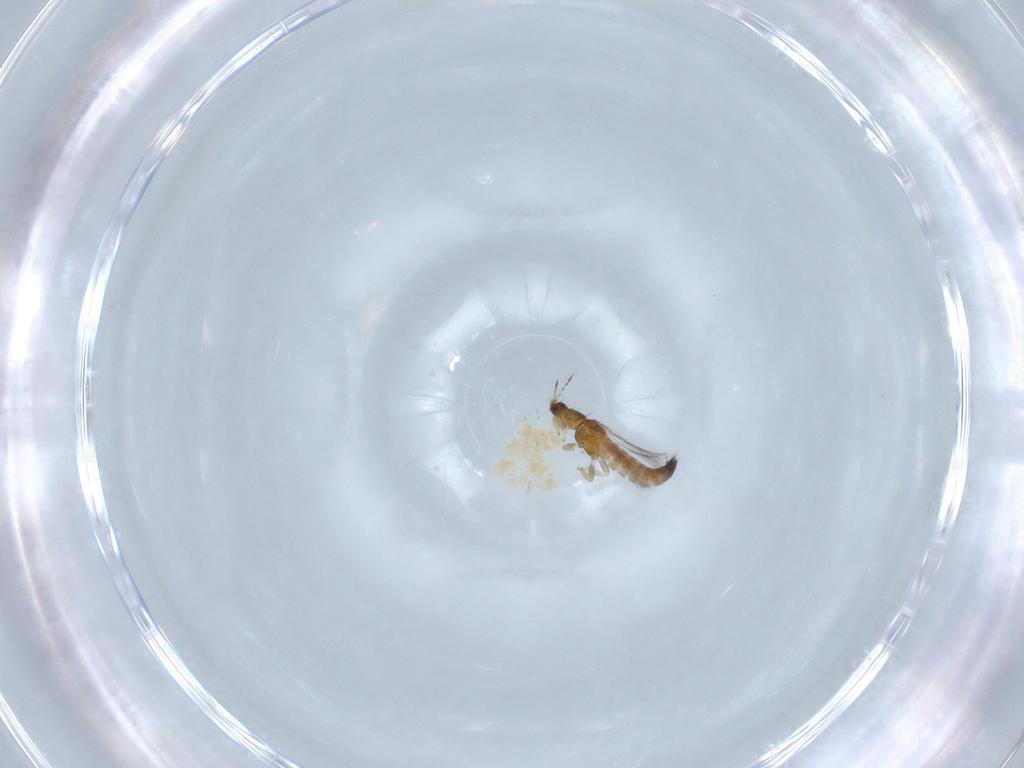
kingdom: Animalia
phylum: Arthropoda
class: Insecta
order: Thysanoptera
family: Thripidae
